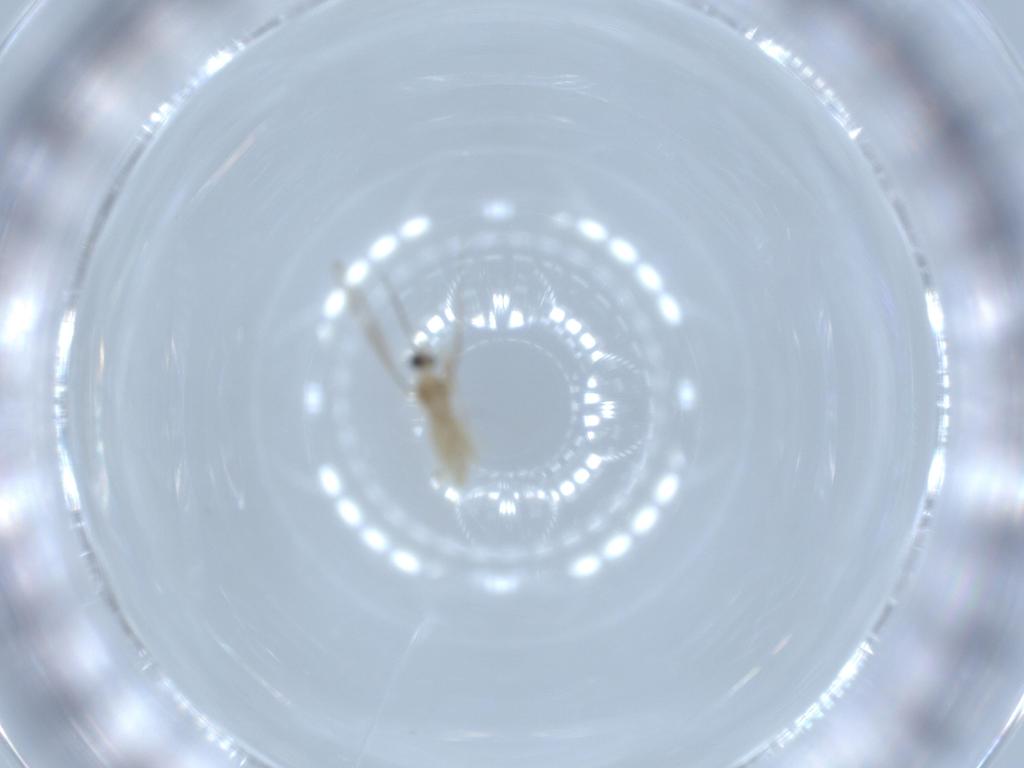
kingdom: Animalia
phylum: Arthropoda
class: Insecta
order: Diptera
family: Cecidomyiidae
